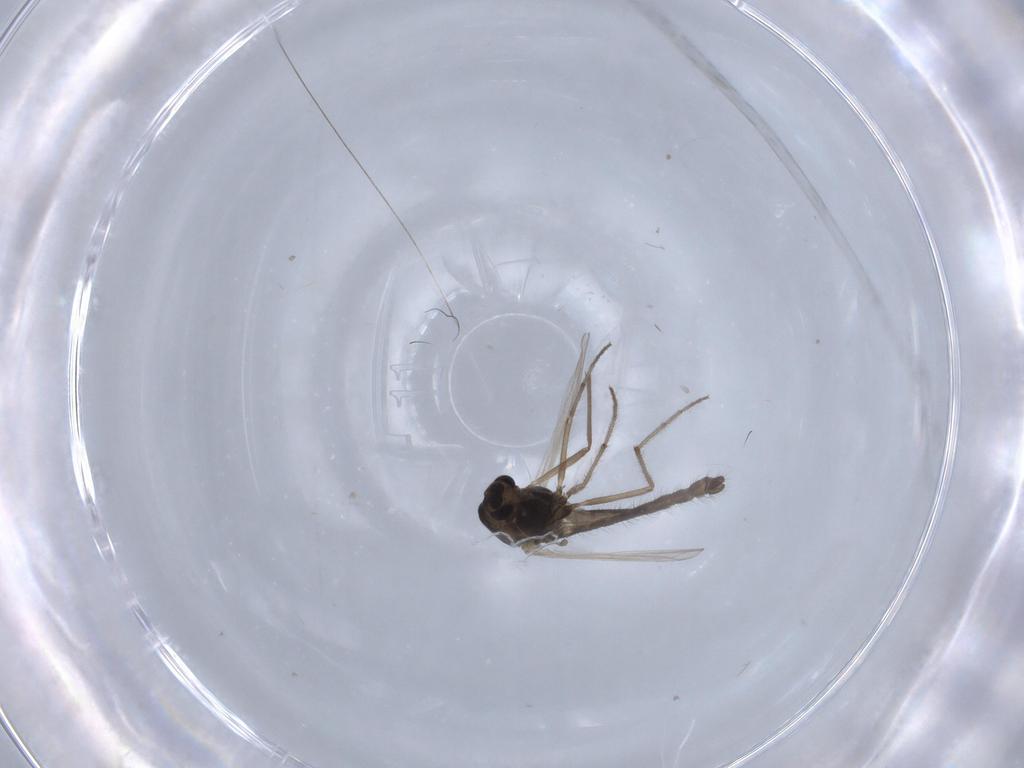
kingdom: Animalia
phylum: Arthropoda
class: Insecta
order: Diptera
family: Chironomidae
